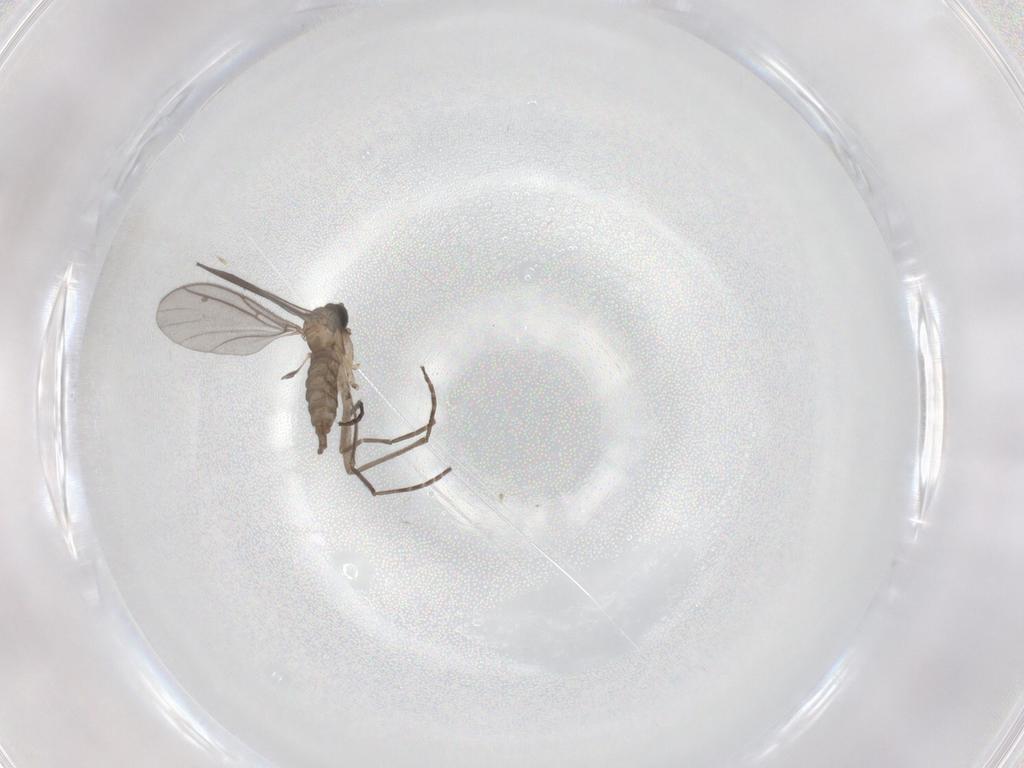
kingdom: Animalia
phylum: Arthropoda
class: Insecta
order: Diptera
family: Sciaridae
